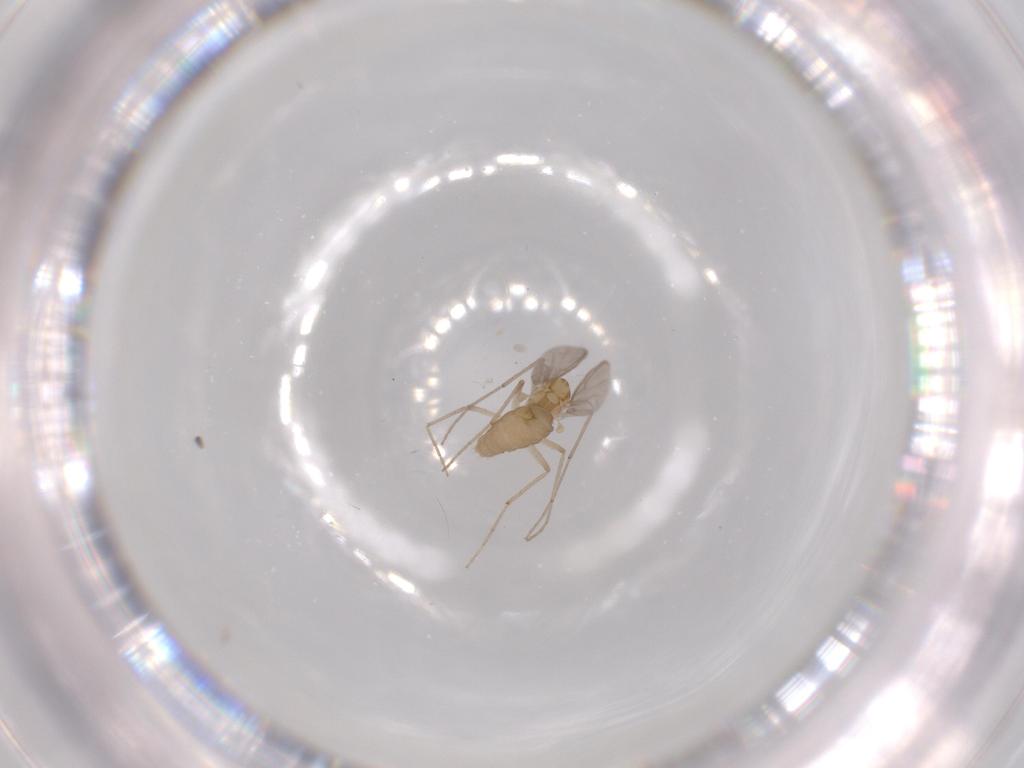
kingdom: Animalia
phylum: Arthropoda
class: Insecta
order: Diptera
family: Chironomidae
